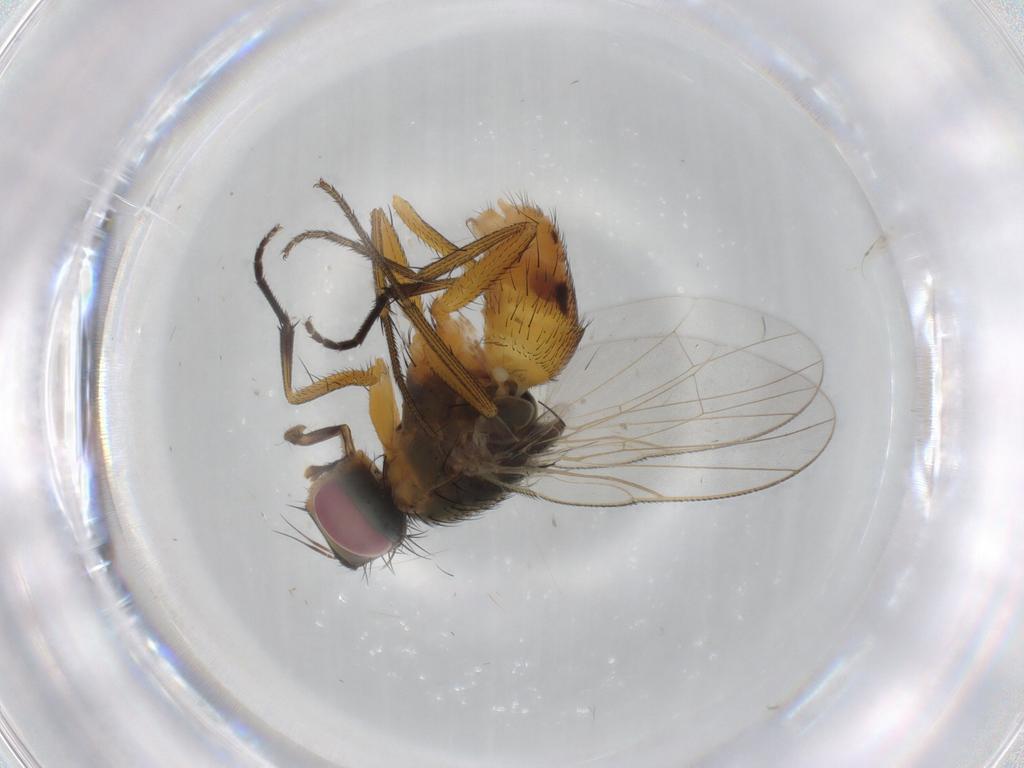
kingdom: Animalia
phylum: Arthropoda
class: Insecta
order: Diptera
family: Muscidae
